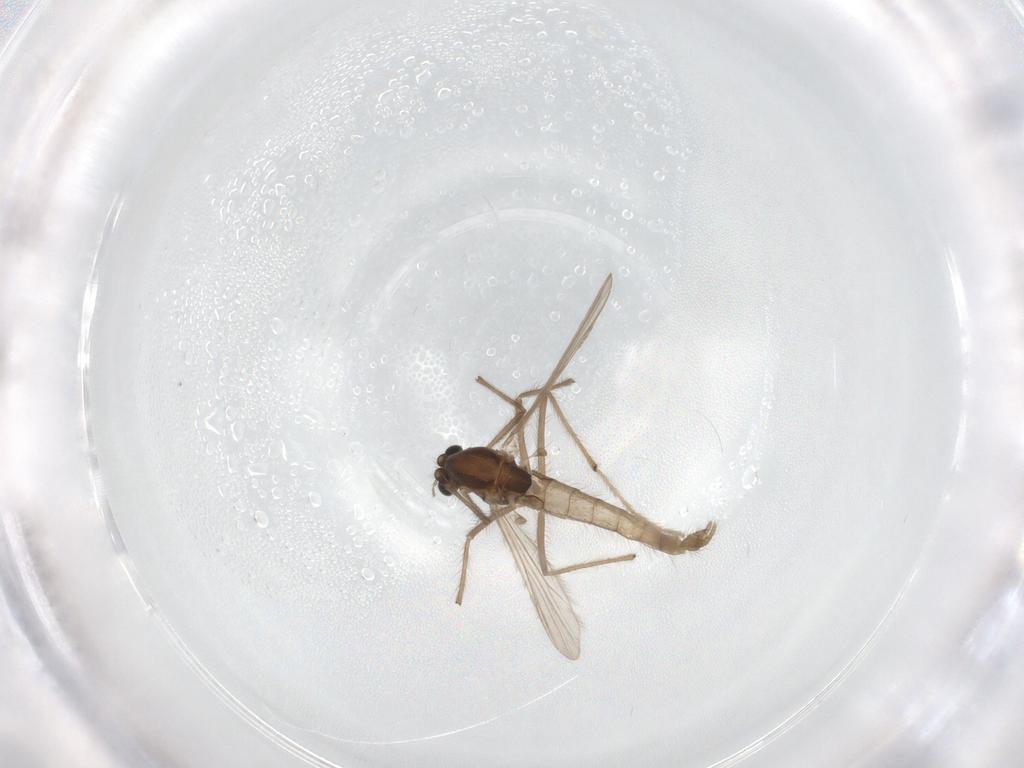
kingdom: Animalia
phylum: Arthropoda
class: Insecta
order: Diptera
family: Chironomidae
